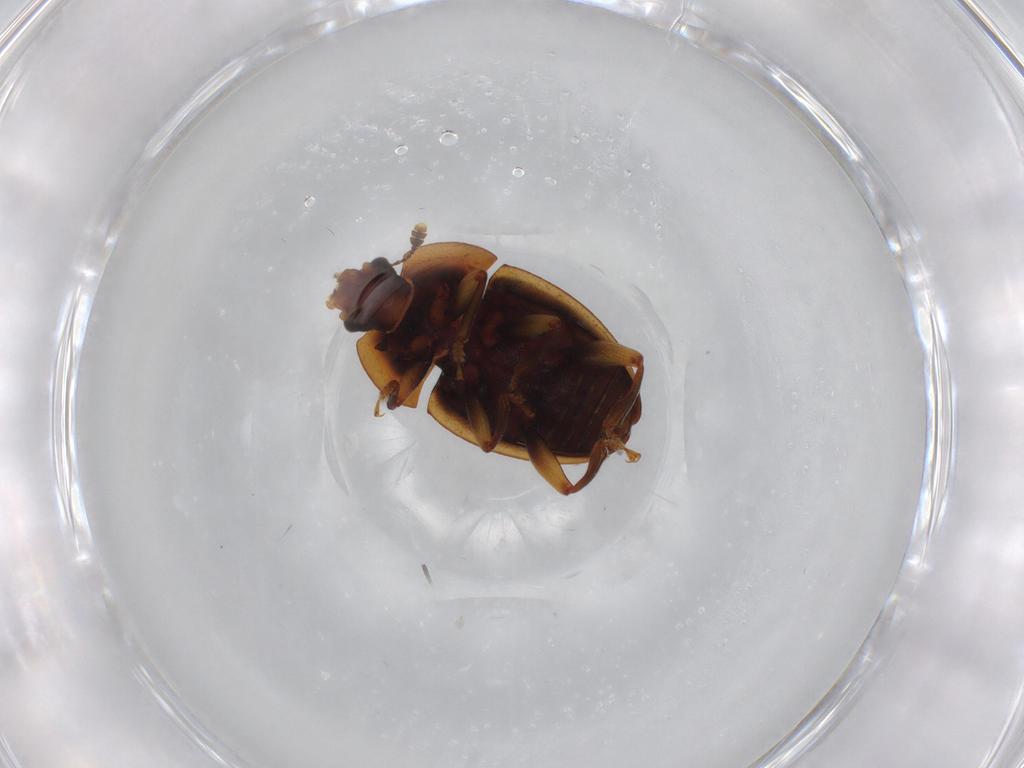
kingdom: Animalia
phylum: Arthropoda
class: Insecta
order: Coleoptera
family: Nitidulidae
